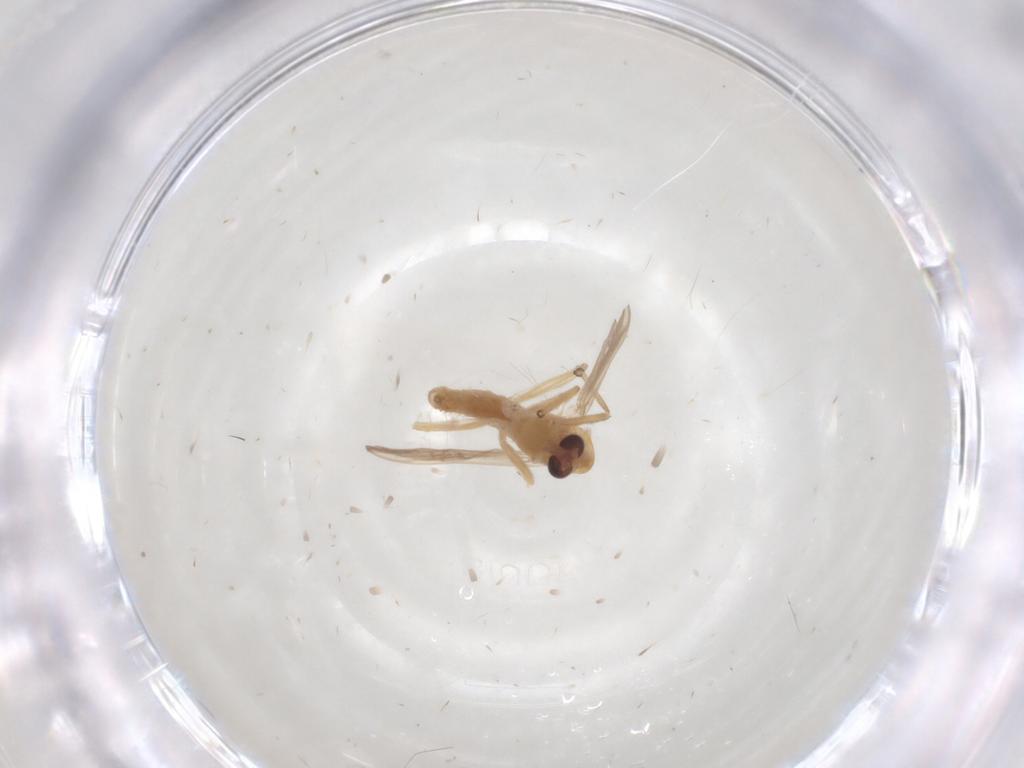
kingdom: Animalia
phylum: Arthropoda
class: Insecta
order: Diptera
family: Chironomidae
